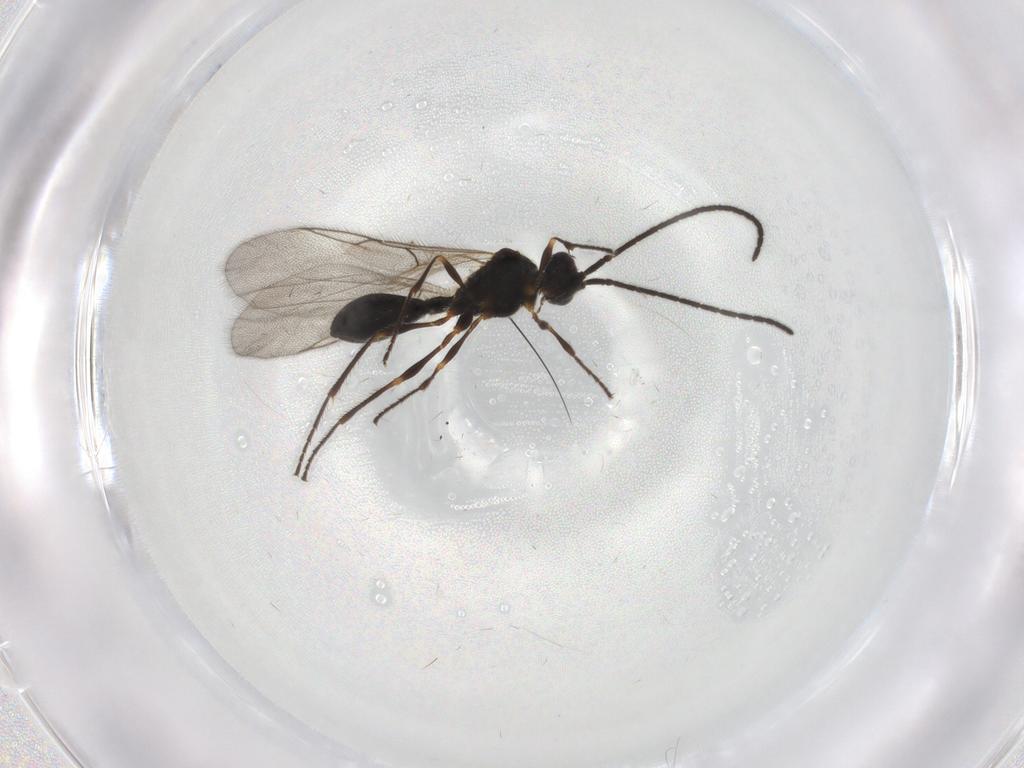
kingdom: Animalia
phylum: Arthropoda
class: Insecta
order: Hymenoptera
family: Diapriidae
